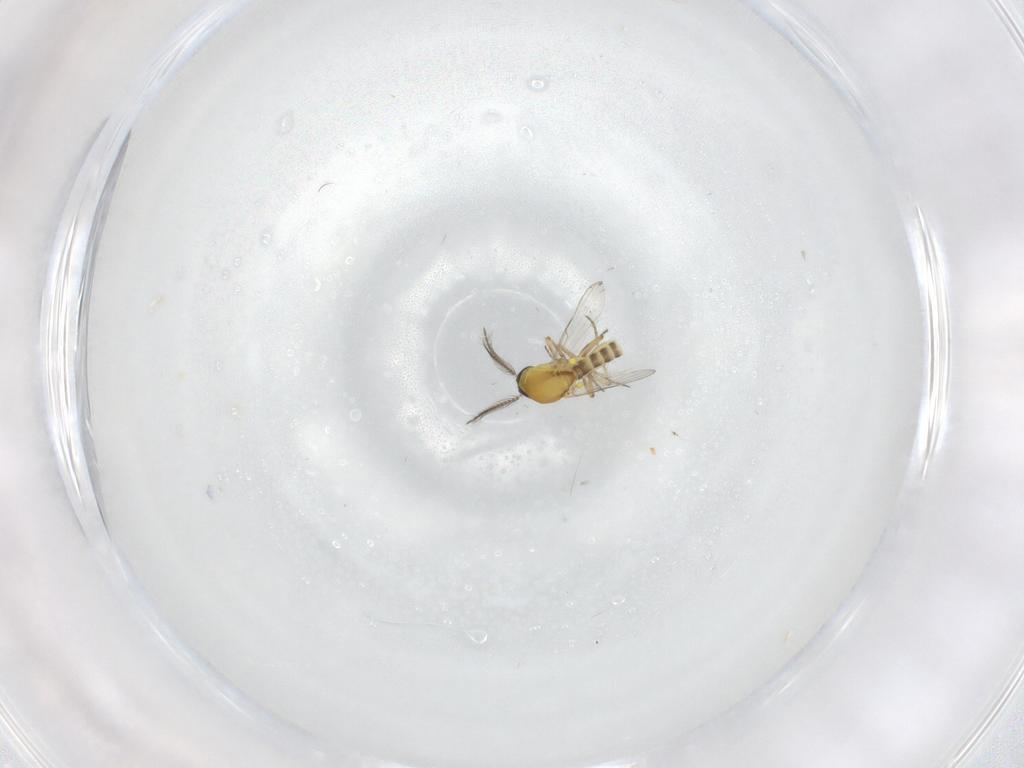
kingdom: Animalia
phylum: Arthropoda
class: Insecta
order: Diptera
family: Ceratopogonidae
